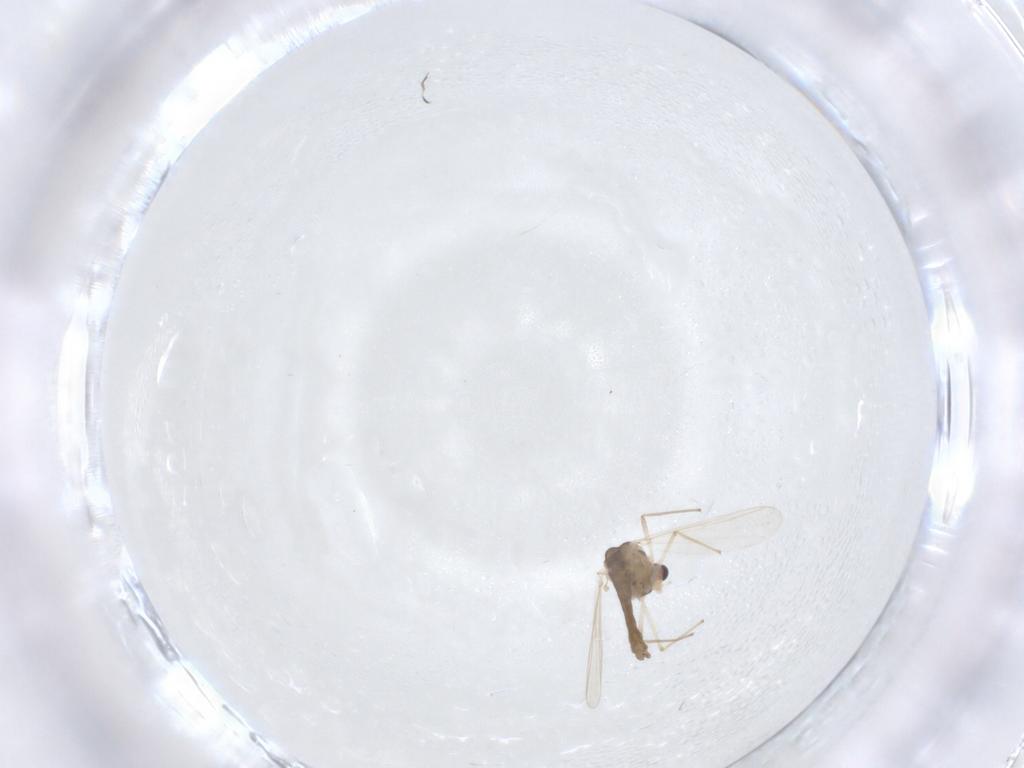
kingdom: Animalia
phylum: Arthropoda
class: Insecta
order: Diptera
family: Chironomidae
